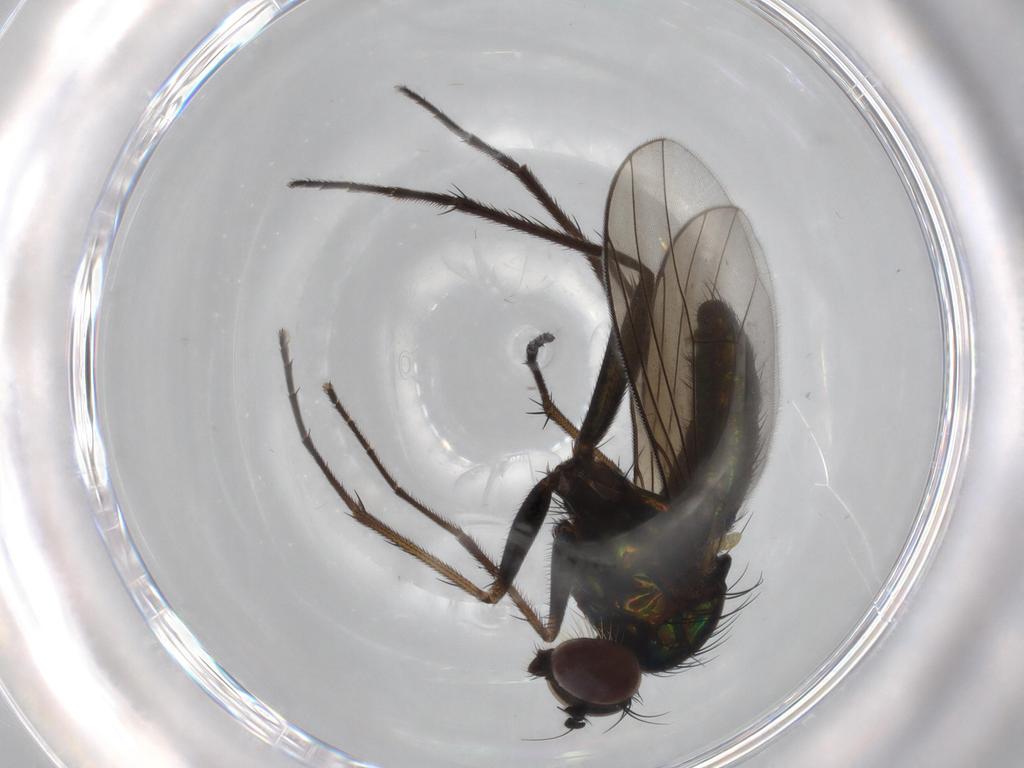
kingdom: Animalia
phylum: Arthropoda
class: Insecta
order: Diptera
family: Dolichopodidae
